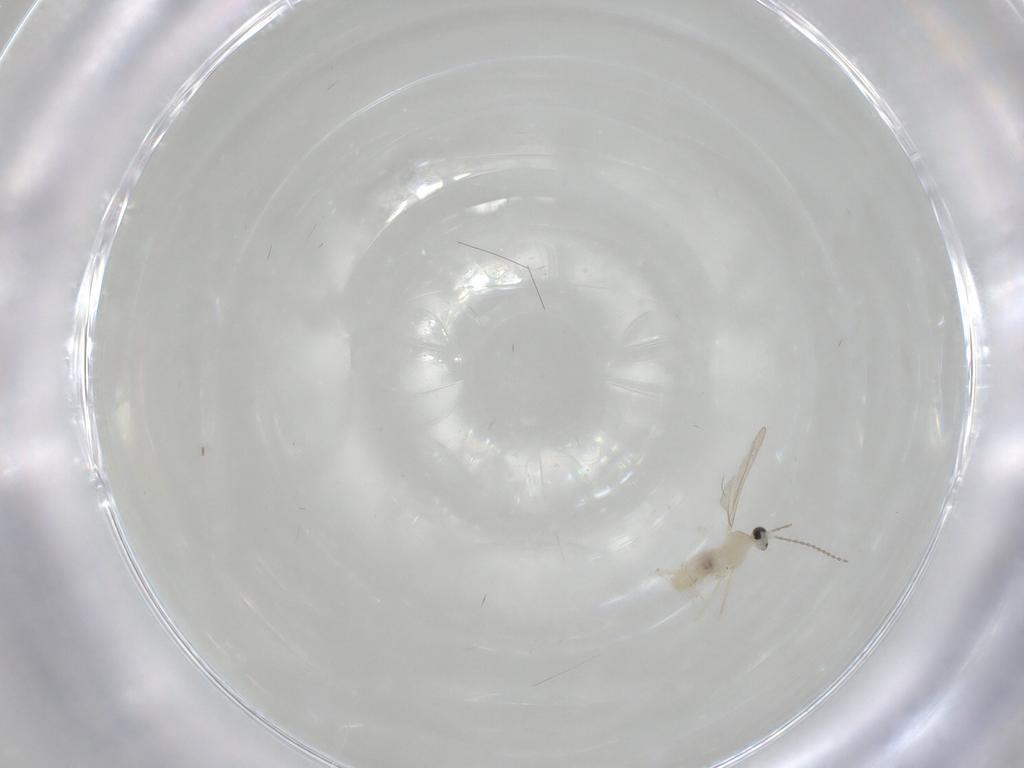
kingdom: Animalia
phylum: Arthropoda
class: Insecta
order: Diptera
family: Cecidomyiidae
